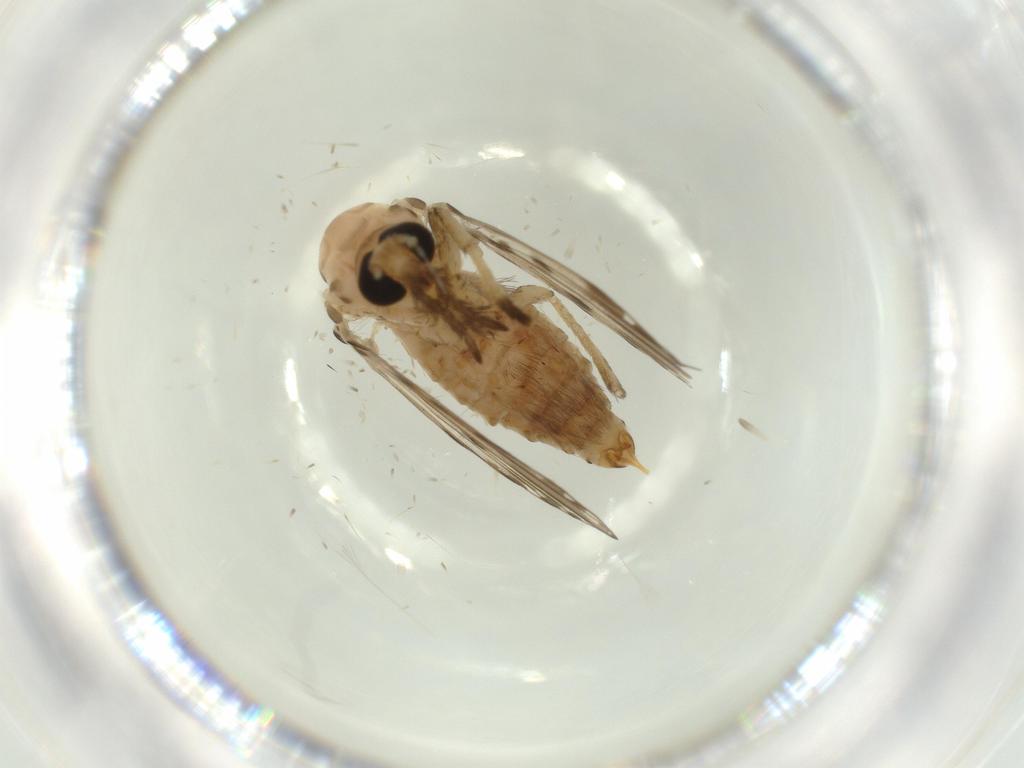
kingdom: Animalia
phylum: Arthropoda
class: Insecta
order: Diptera
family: Psychodidae
